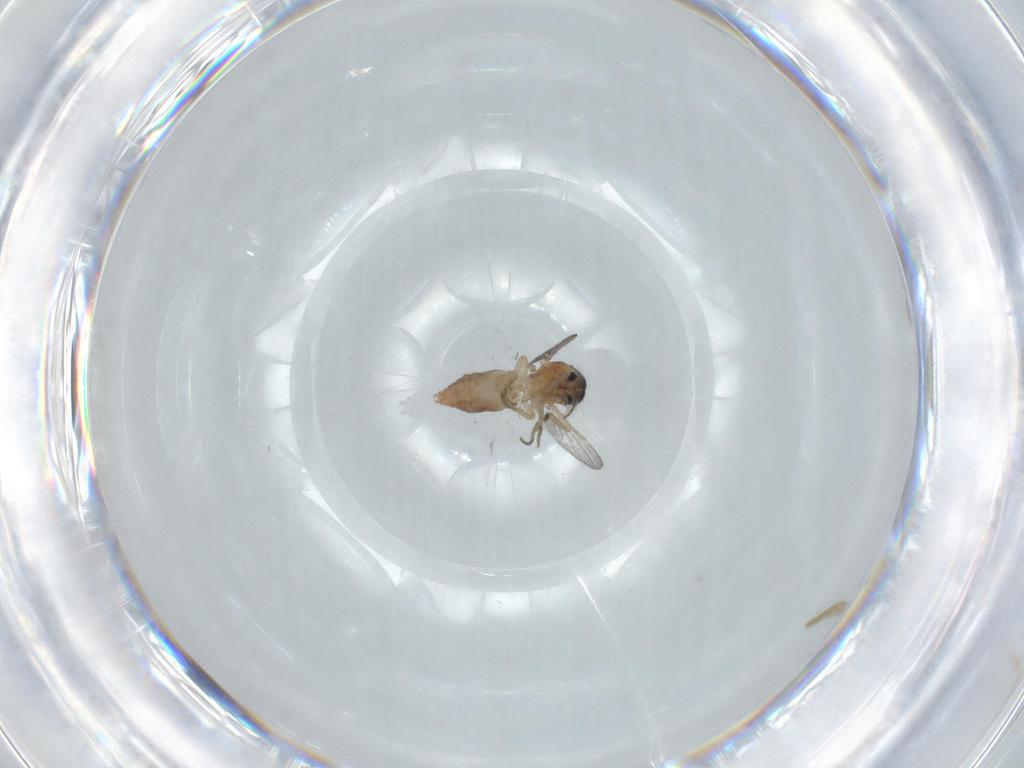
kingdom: Animalia
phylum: Arthropoda
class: Insecta
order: Diptera
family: Ceratopogonidae
